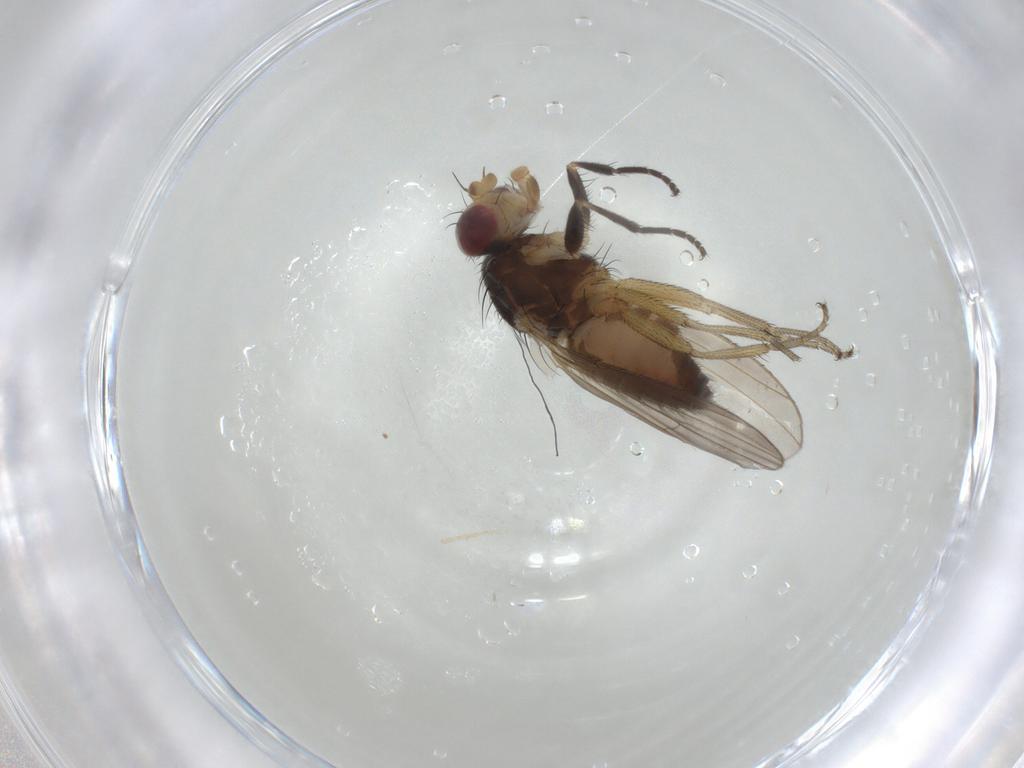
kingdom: Animalia
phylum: Arthropoda
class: Insecta
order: Diptera
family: Heleomyzidae
